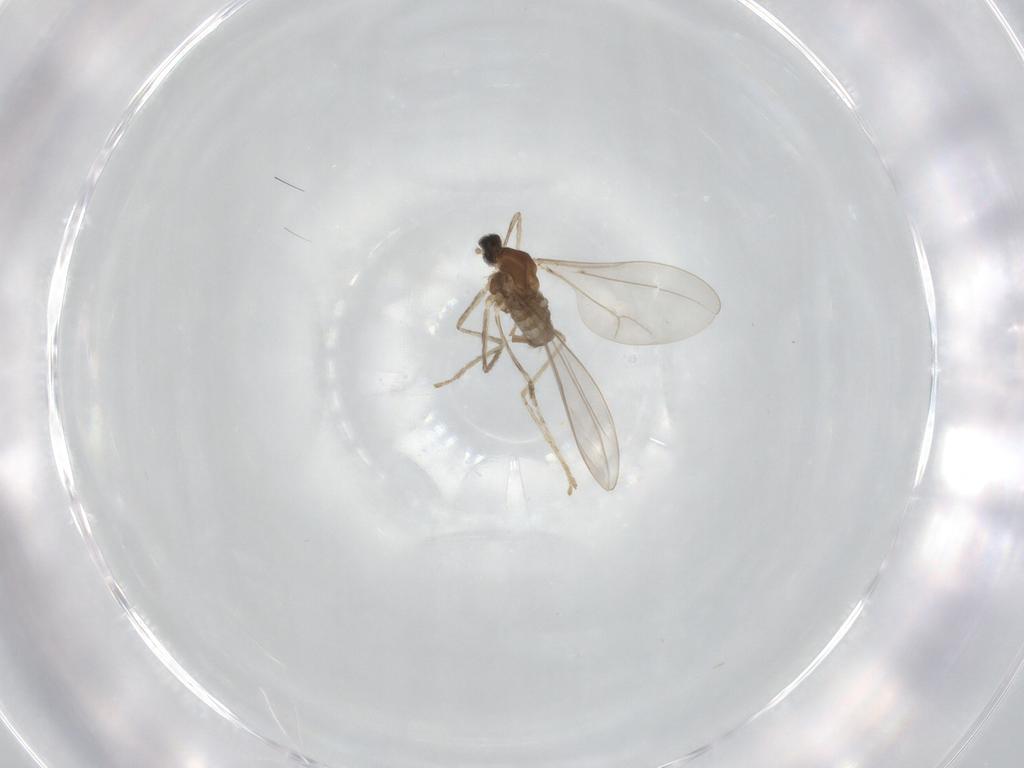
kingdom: Animalia
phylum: Arthropoda
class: Insecta
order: Diptera
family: Cecidomyiidae
